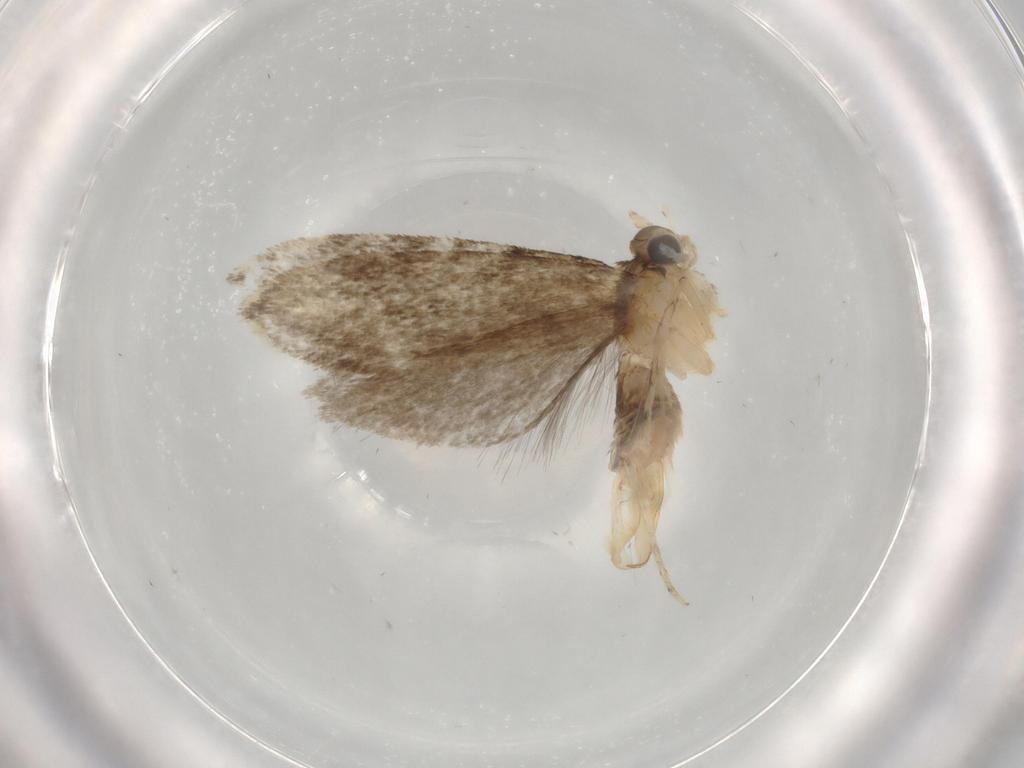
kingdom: Animalia
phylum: Arthropoda
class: Insecta
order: Lepidoptera
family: Tineidae
